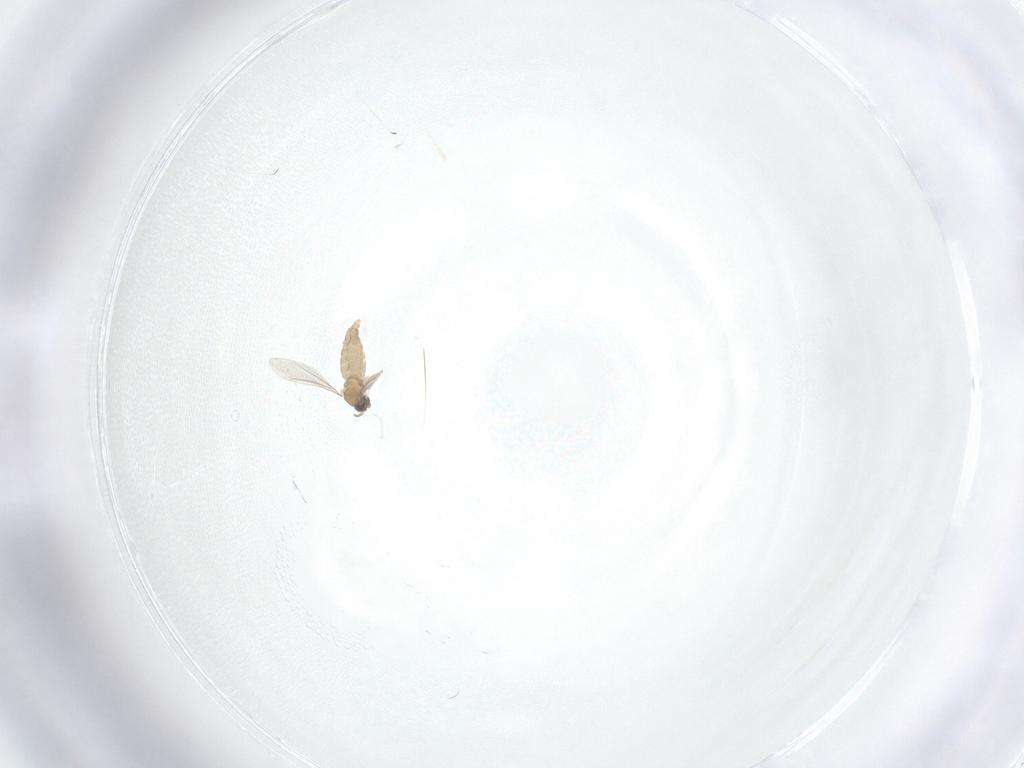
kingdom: Animalia
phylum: Arthropoda
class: Insecta
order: Diptera
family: Cecidomyiidae
